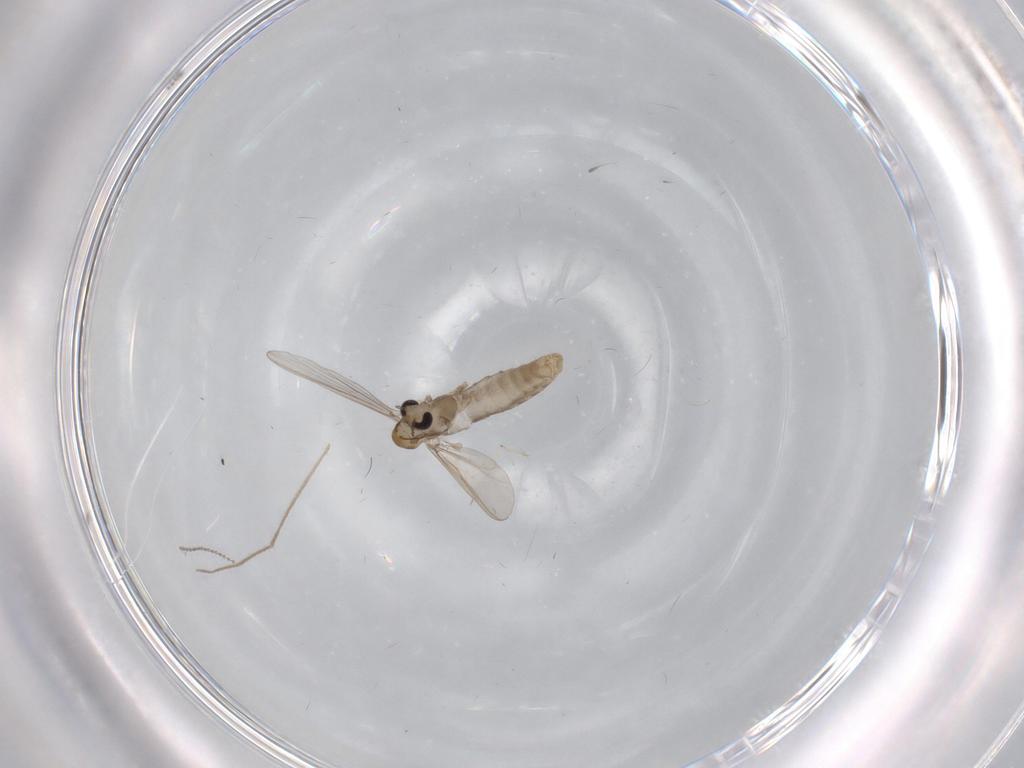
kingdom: Animalia
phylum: Arthropoda
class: Insecta
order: Diptera
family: Chironomidae
